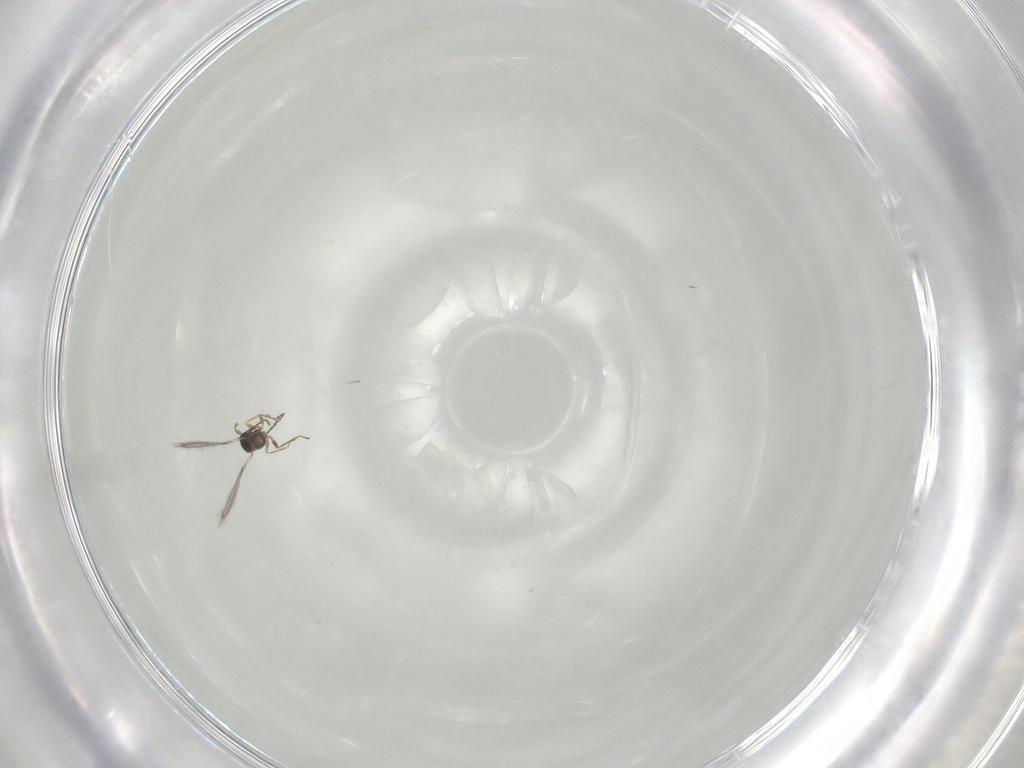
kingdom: Animalia
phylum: Arthropoda
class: Insecta
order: Hymenoptera
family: Mymaridae
